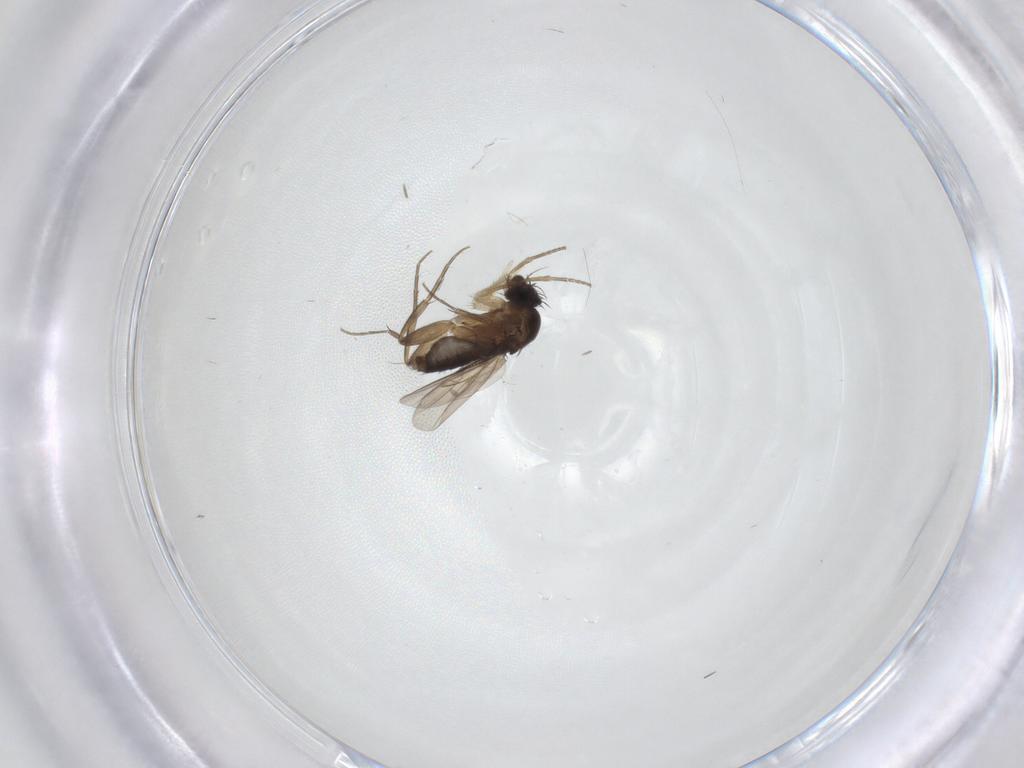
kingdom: Animalia
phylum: Arthropoda
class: Insecta
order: Diptera
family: Phoridae
